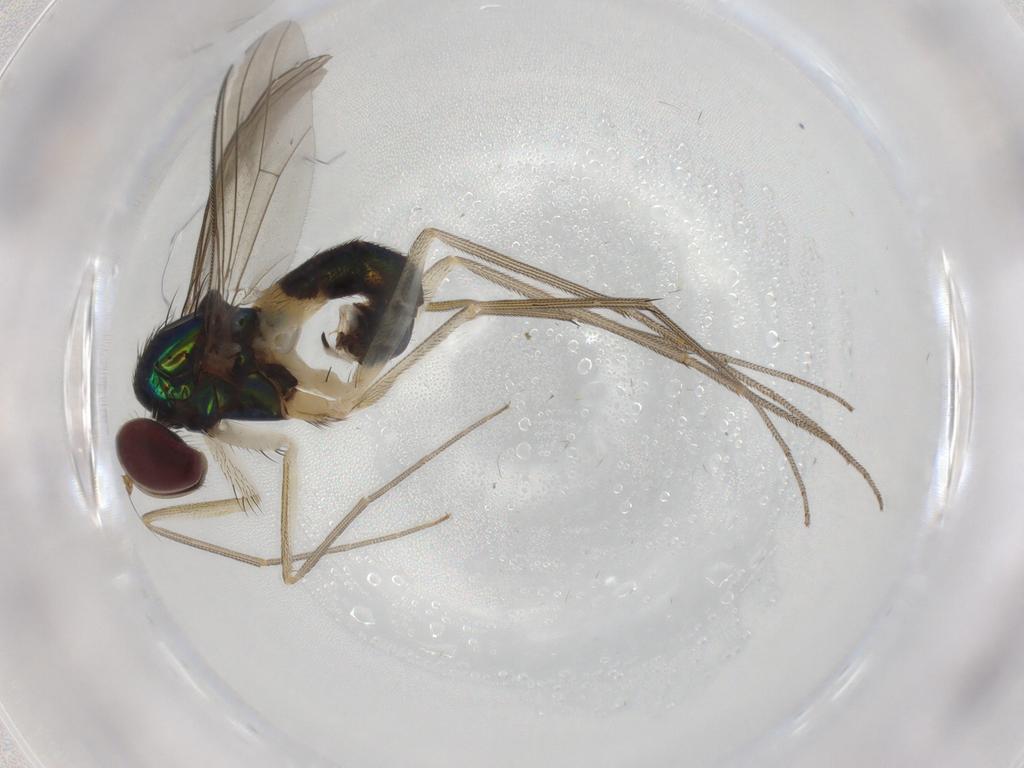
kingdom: Animalia
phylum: Arthropoda
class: Insecta
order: Diptera
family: Dolichopodidae
